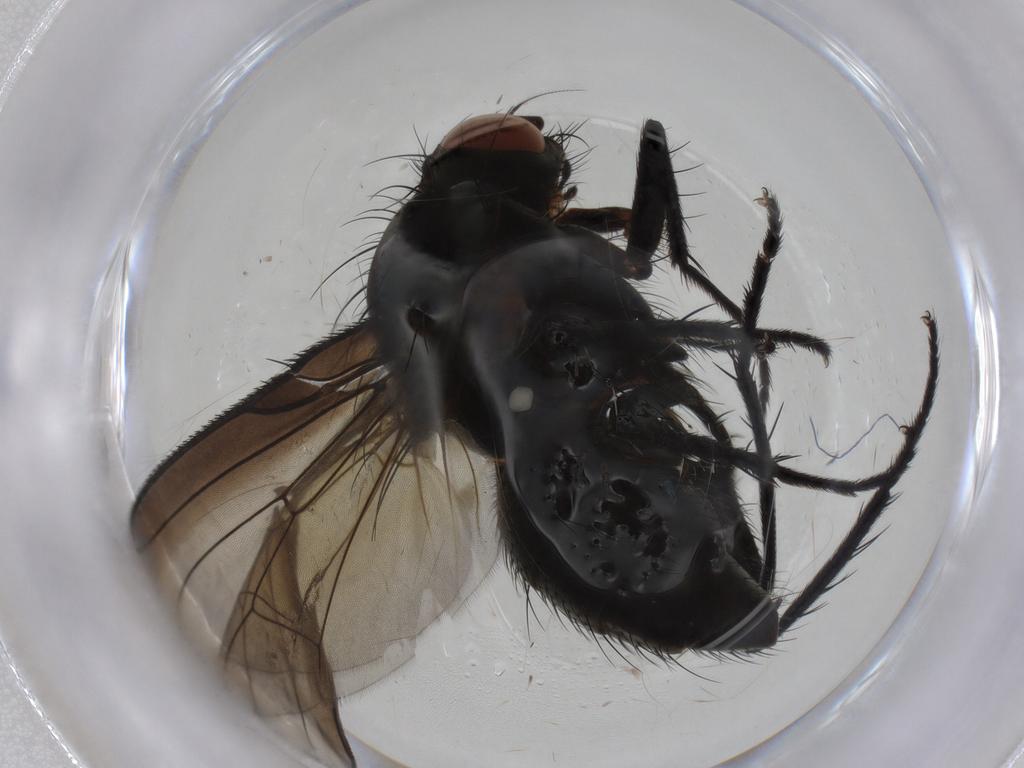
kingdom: Animalia
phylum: Arthropoda
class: Insecta
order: Diptera
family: Anthomyiidae
